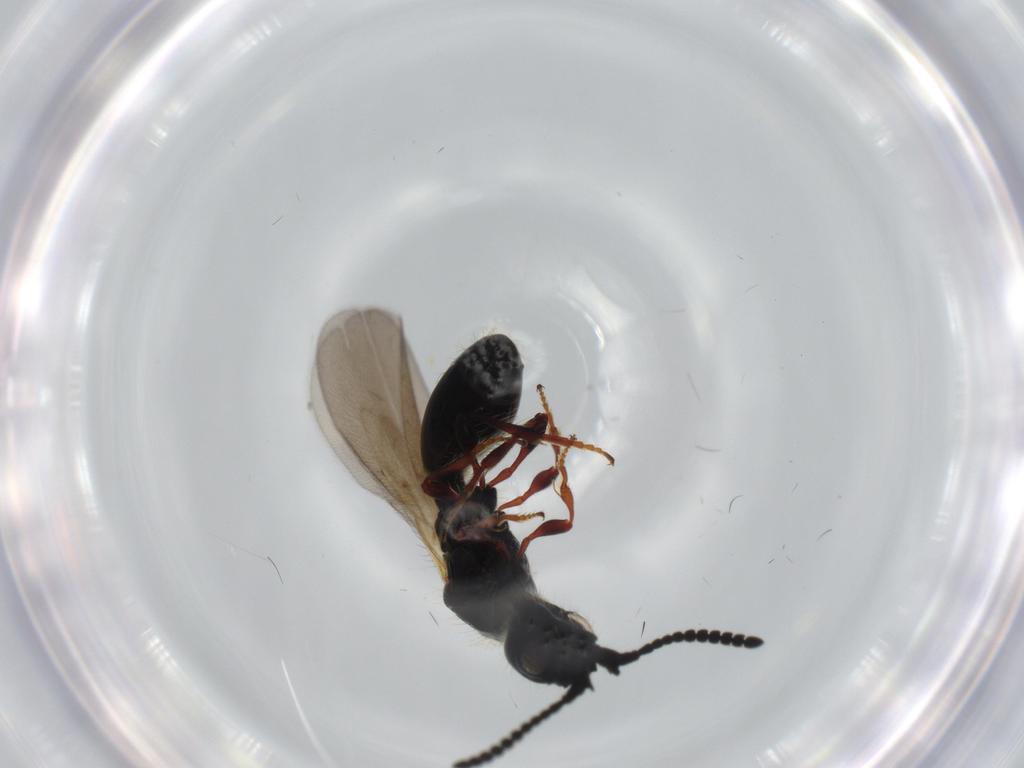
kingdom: Animalia
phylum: Arthropoda
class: Insecta
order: Hymenoptera
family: Diapriidae
